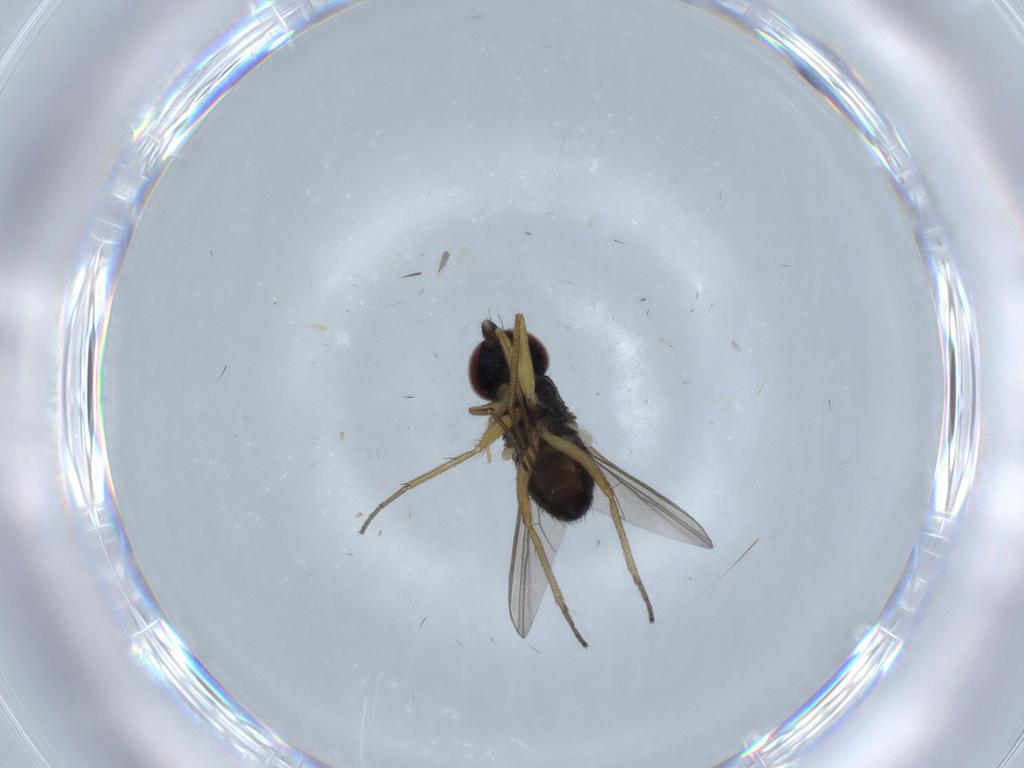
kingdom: Animalia
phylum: Arthropoda
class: Insecta
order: Diptera
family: Dolichopodidae
